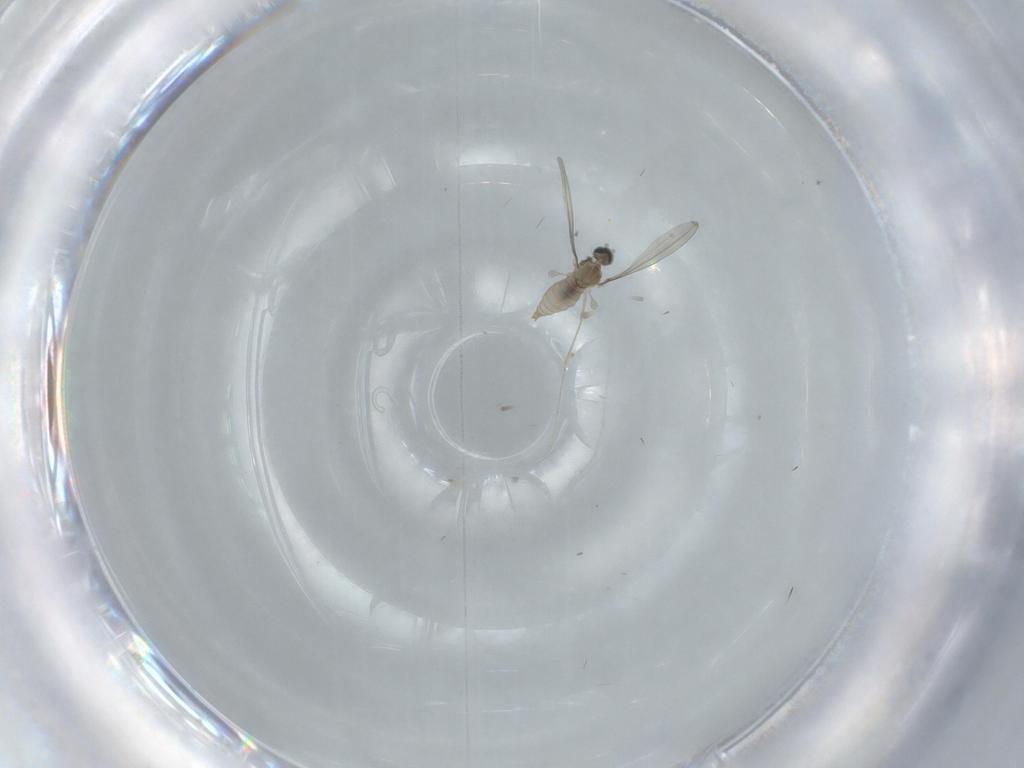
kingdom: Animalia
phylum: Arthropoda
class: Insecta
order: Diptera
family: Cecidomyiidae
